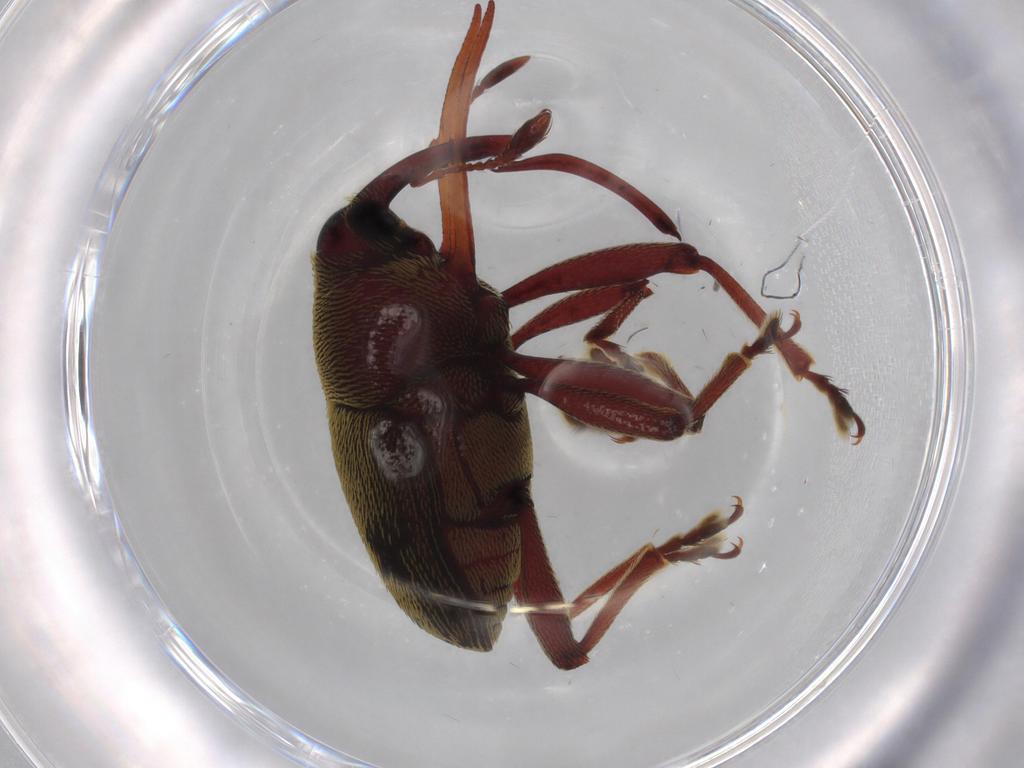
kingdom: Animalia
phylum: Arthropoda
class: Insecta
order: Coleoptera
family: Curculionidae
